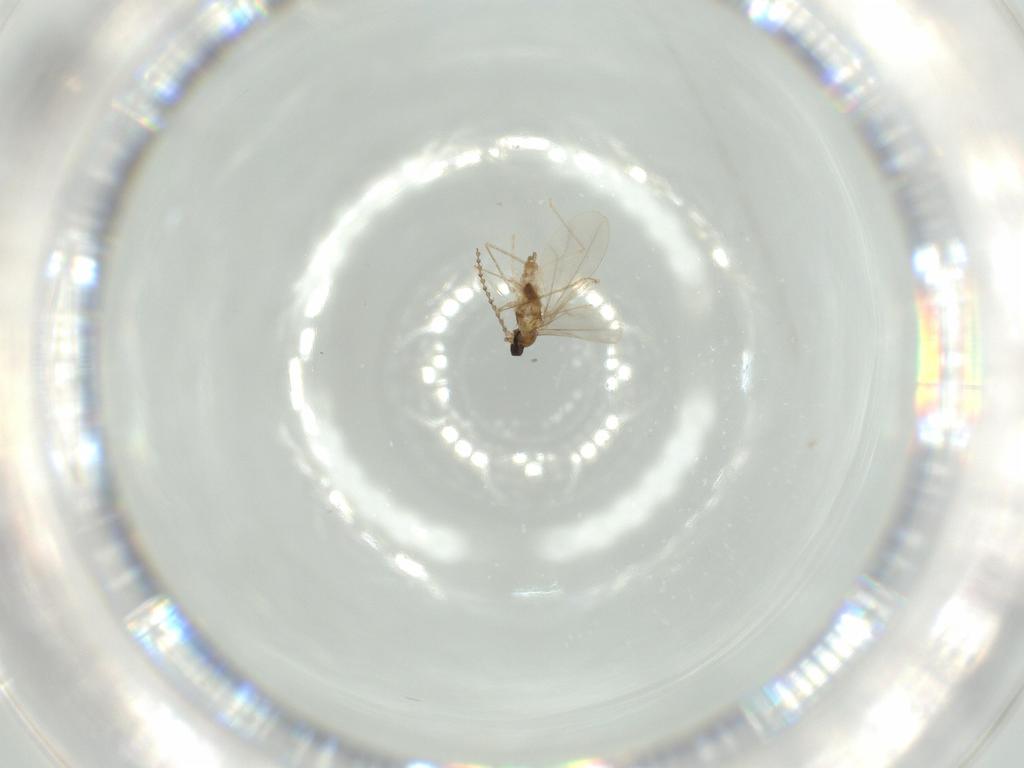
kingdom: Animalia
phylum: Arthropoda
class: Insecta
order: Diptera
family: Cecidomyiidae
